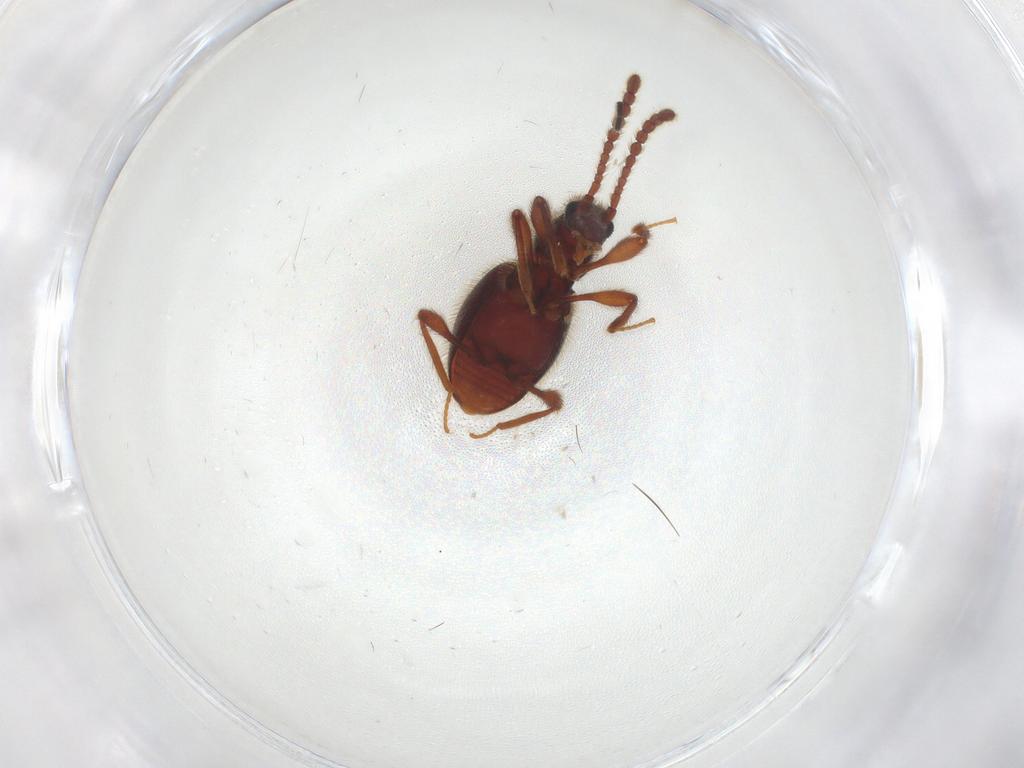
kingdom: Animalia
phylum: Arthropoda
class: Insecta
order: Coleoptera
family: Staphylinidae
